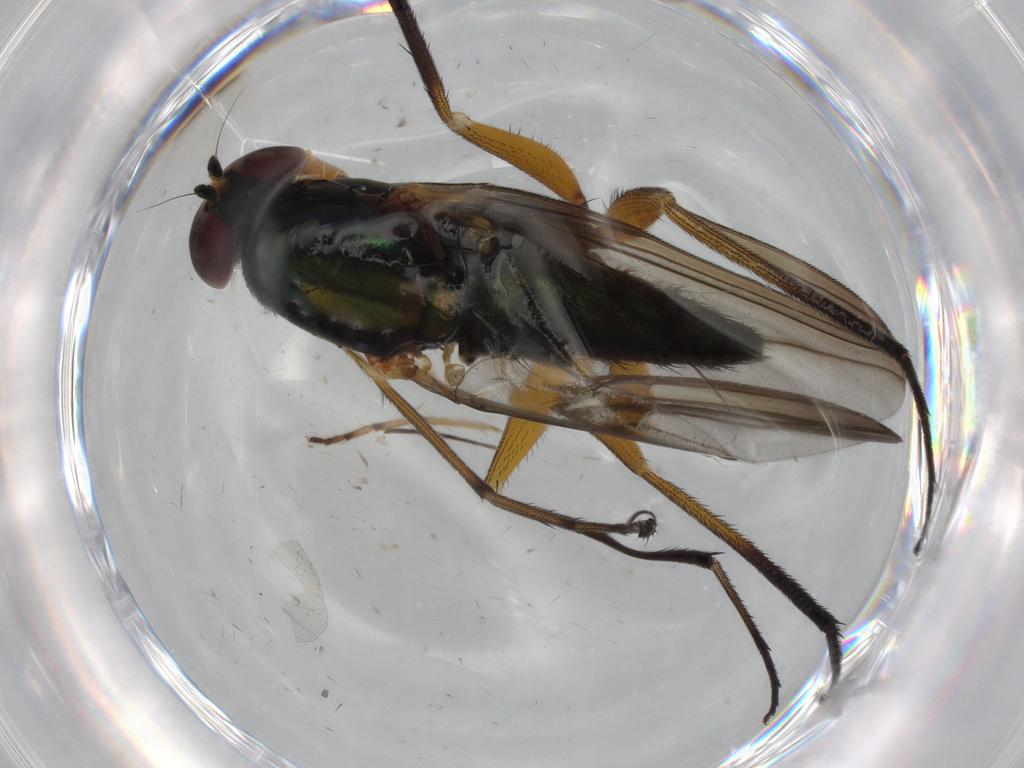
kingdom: Animalia
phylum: Arthropoda
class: Insecta
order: Diptera
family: Dolichopodidae
